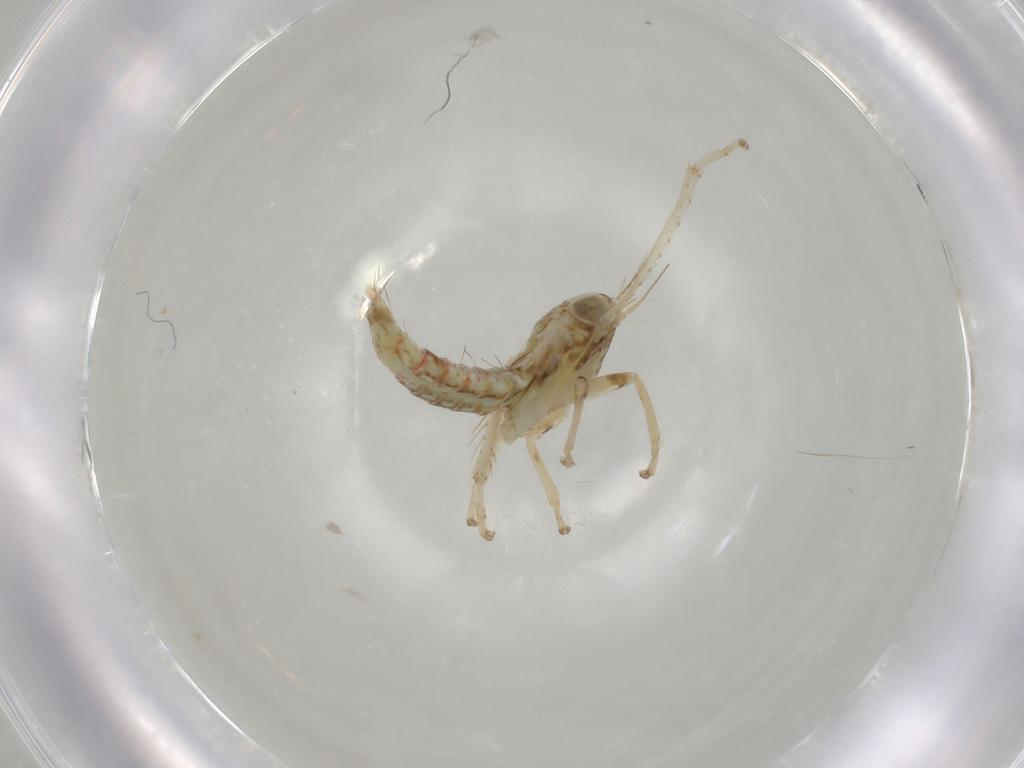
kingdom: Animalia
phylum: Arthropoda
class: Insecta
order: Hemiptera
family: Cicadellidae
